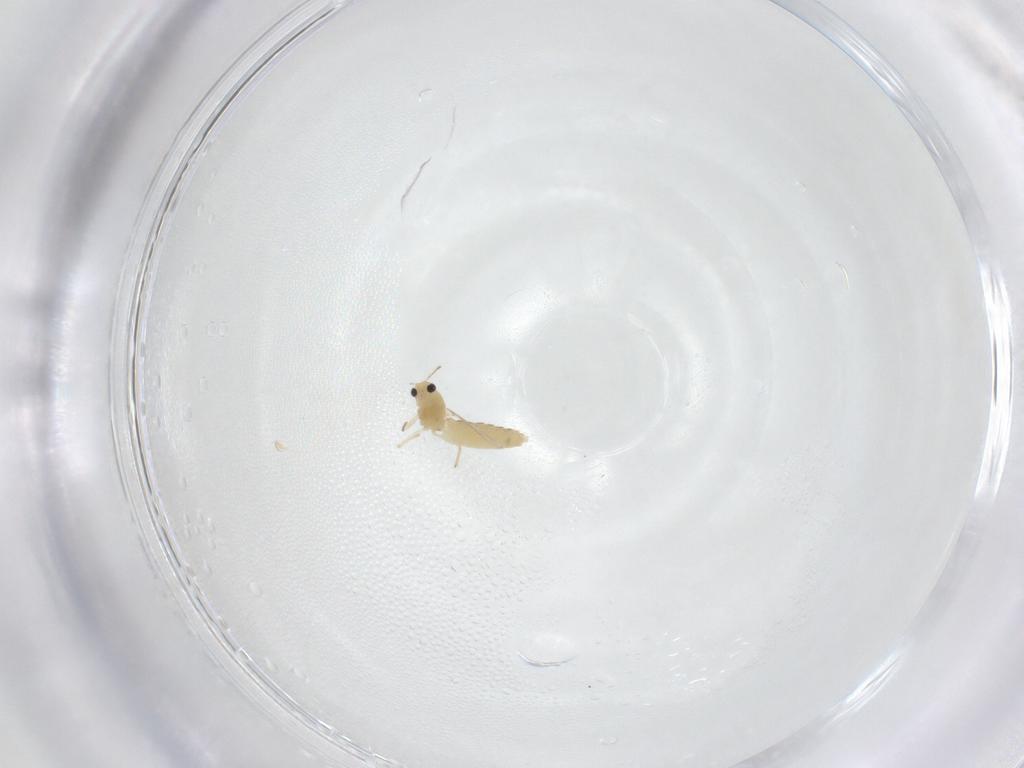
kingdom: Animalia
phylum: Arthropoda
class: Insecta
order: Diptera
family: Chironomidae
